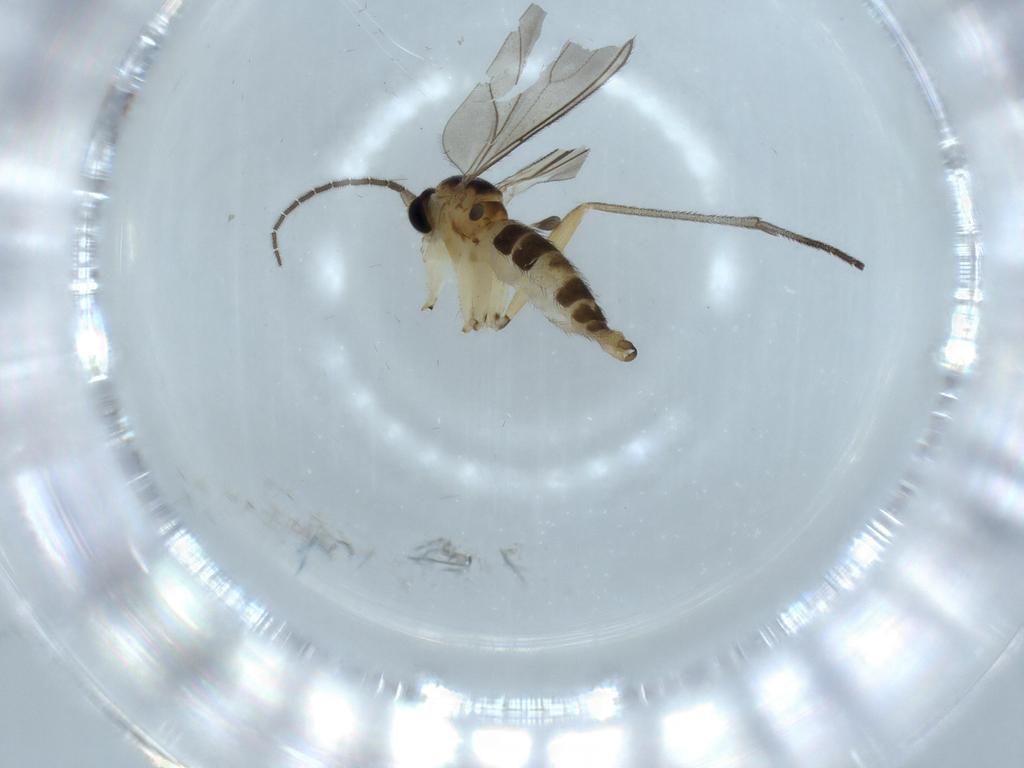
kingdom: Animalia
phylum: Arthropoda
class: Insecta
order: Diptera
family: Sciaridae
